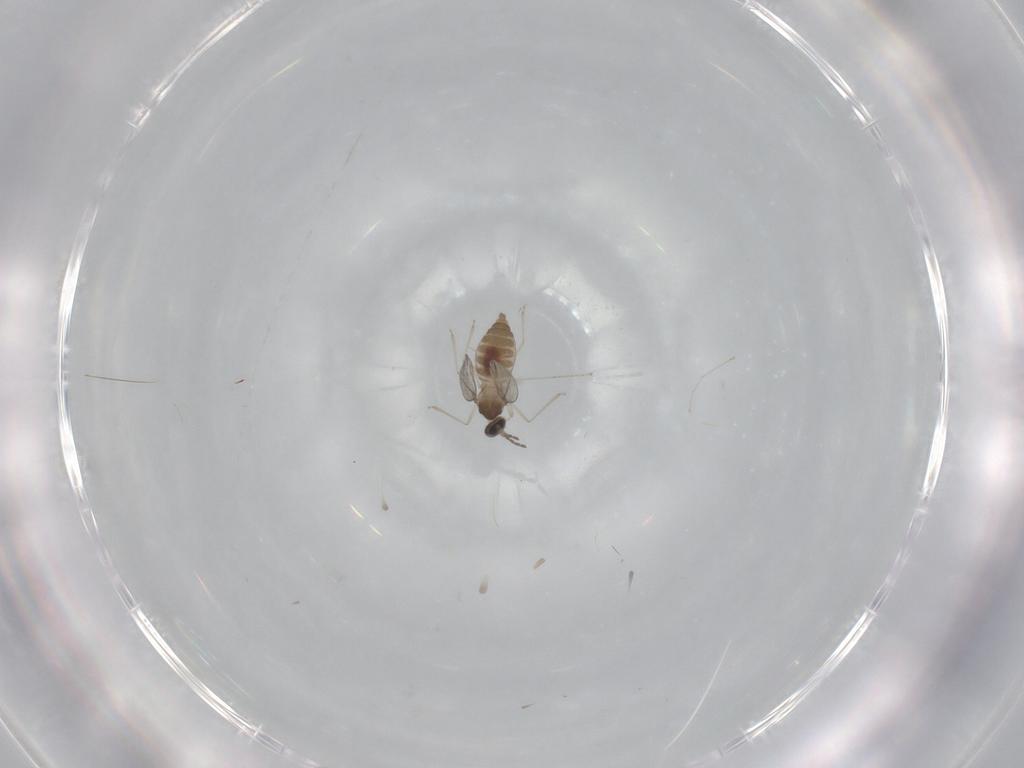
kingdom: Animalia
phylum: Arthropoda
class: Insecta
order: Diptera
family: Cecidomyiidae
